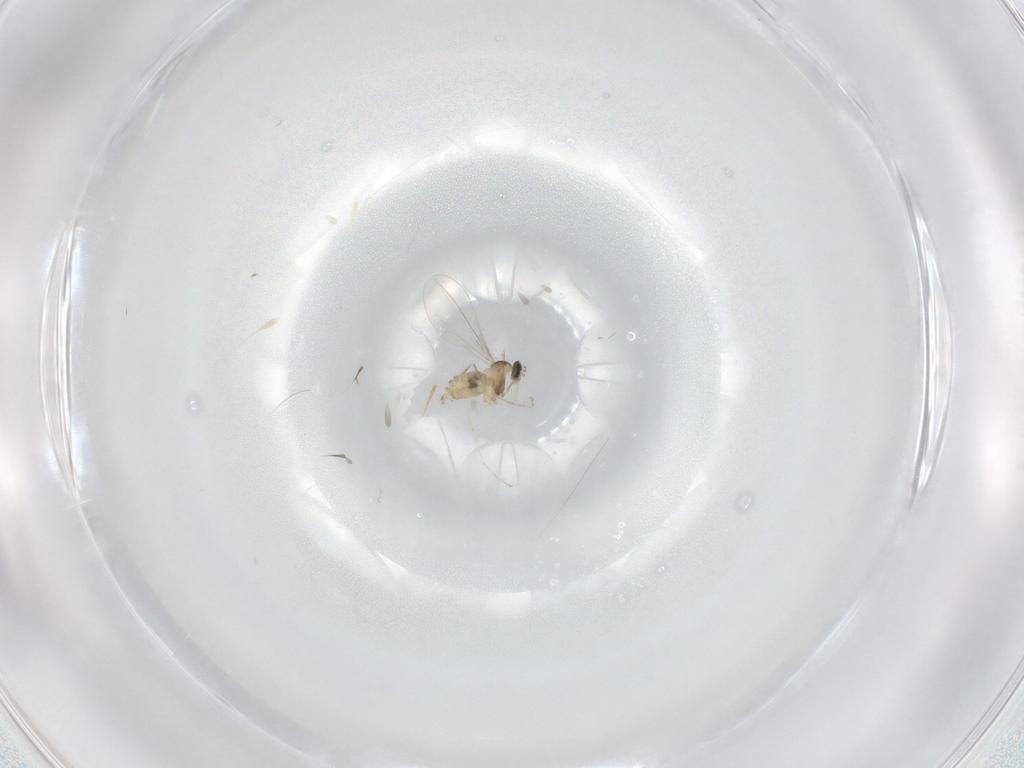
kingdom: Animalia
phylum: Arthropoda
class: Insecta
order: Diptera
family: Cecidomyiidae
